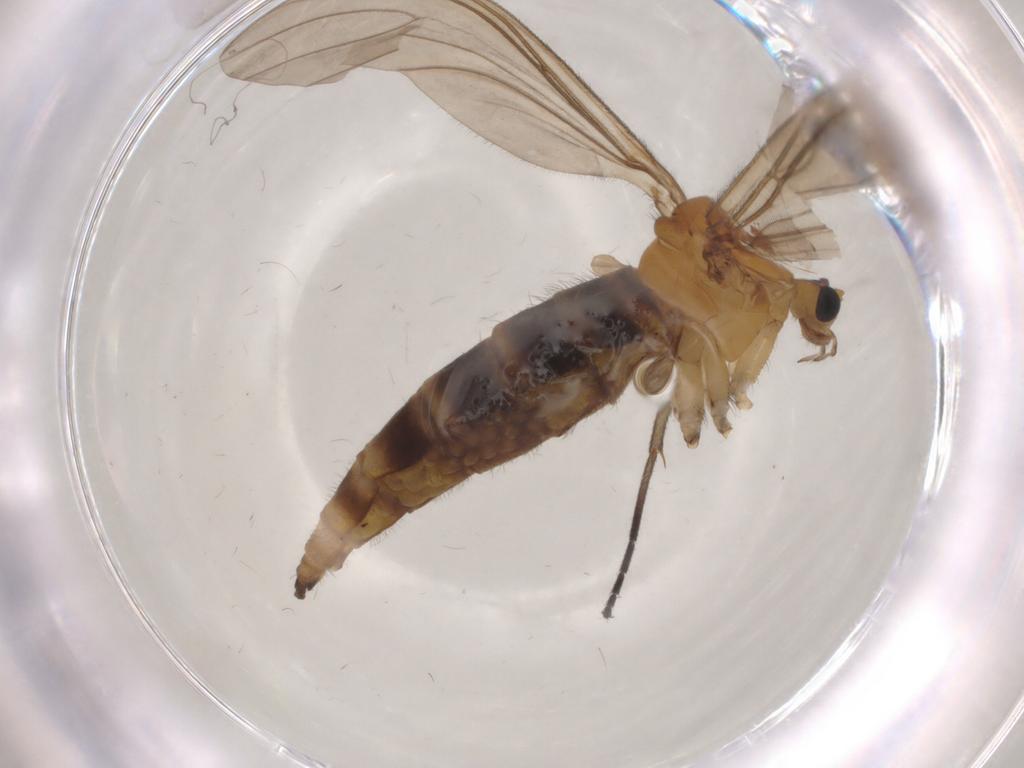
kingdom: Animalia
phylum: Arthropoda
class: Insecta
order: Diptera
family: Sciaridae
